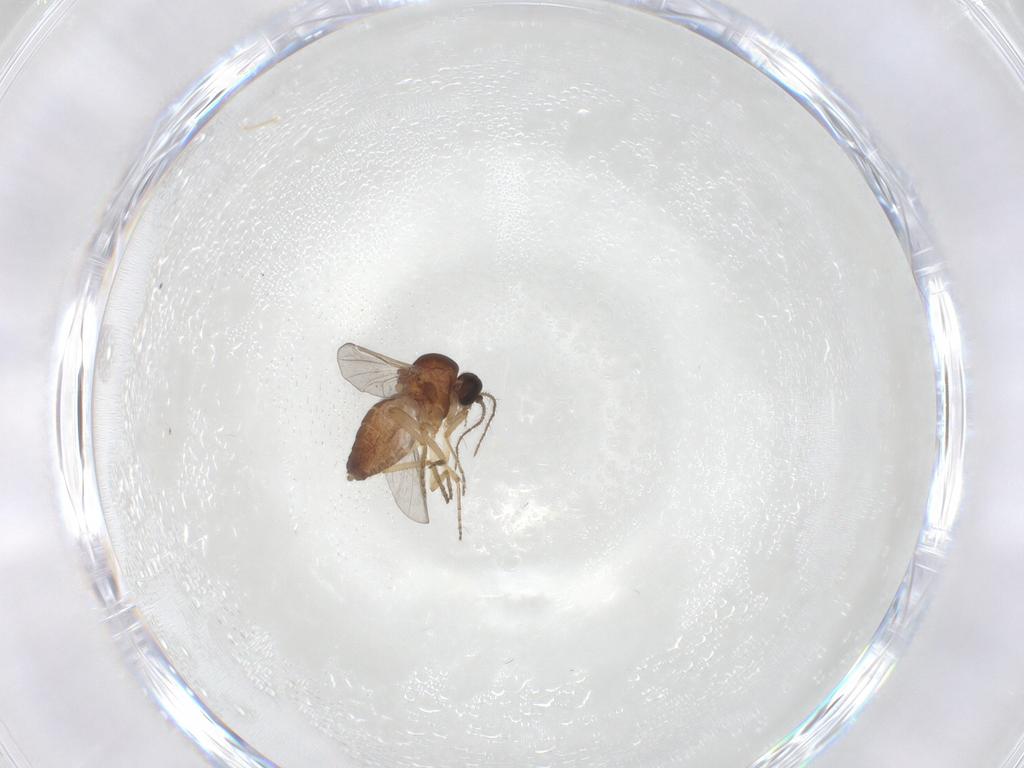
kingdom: Animalia
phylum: Arthropoda
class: Insecta
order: Diptera
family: Ceratopogonidae
